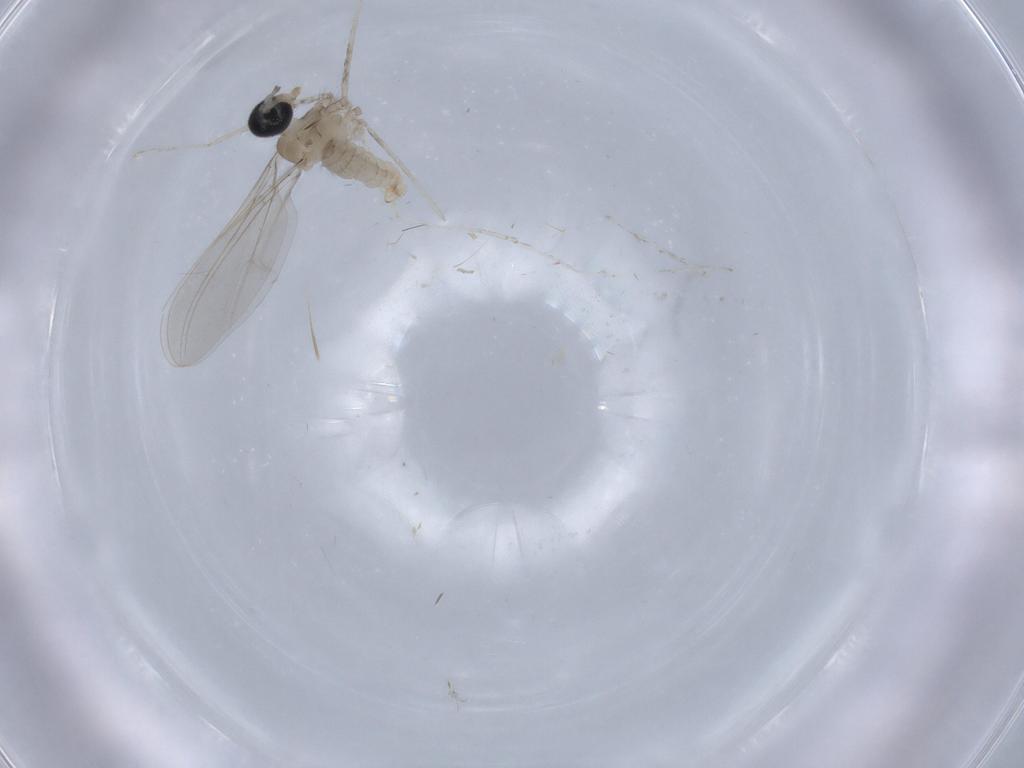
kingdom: Animalia
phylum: Arthropoda
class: Insecta
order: Diptera
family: Cecidomyiidae
